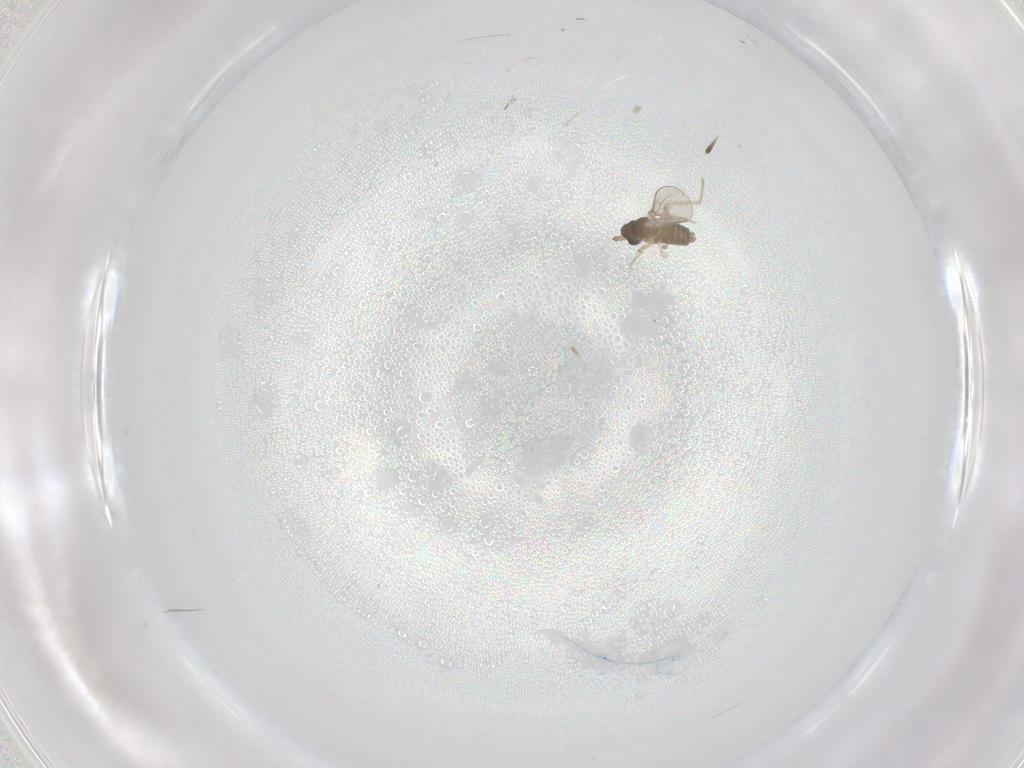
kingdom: Animalia
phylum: Arthropoda
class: Insecta
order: Diptera
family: Cecidomyiidae
